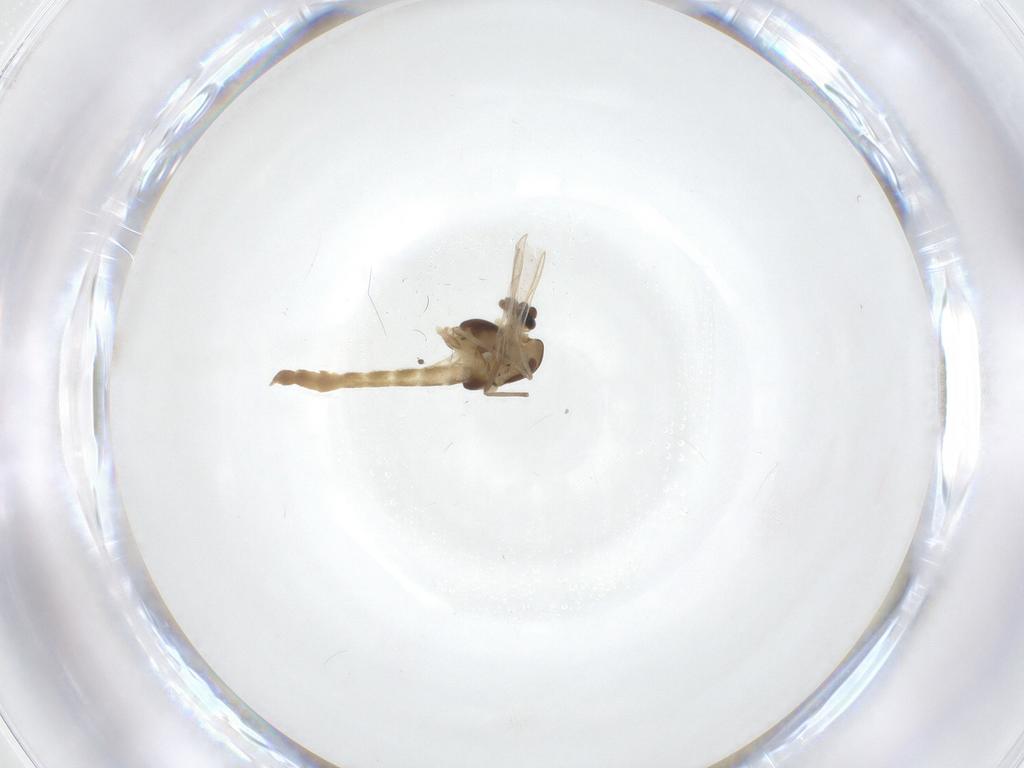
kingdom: Animalia
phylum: Arthropoda
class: Insecta
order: Diptera
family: Chironomidae
